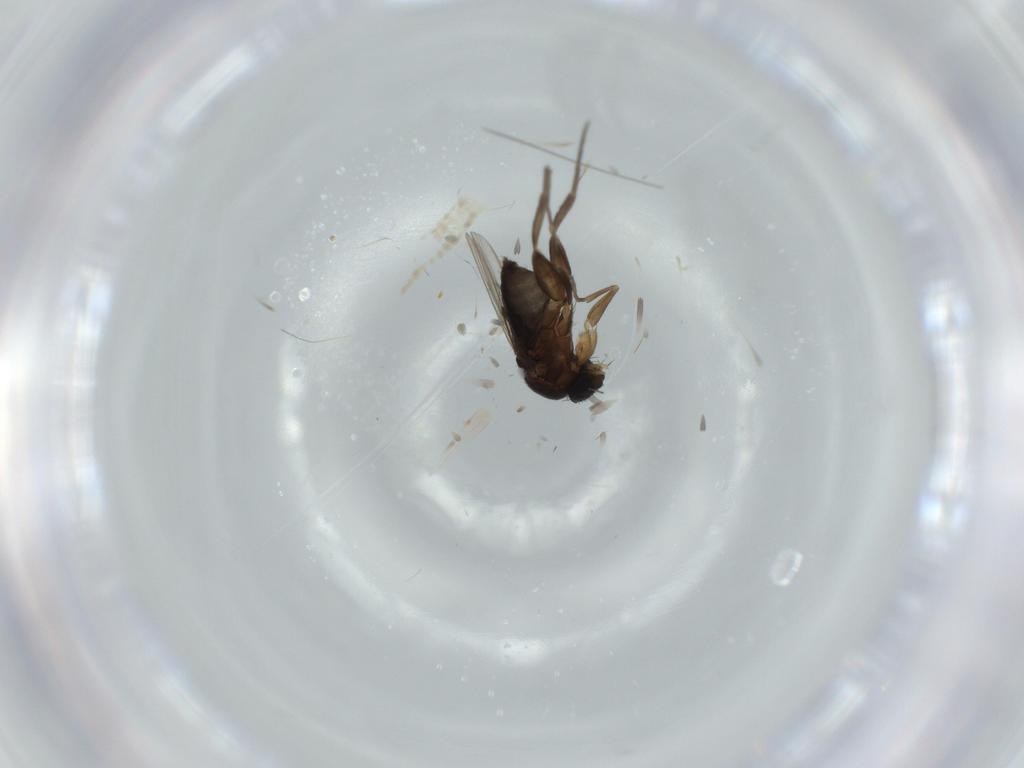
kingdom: Animalia
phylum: Arthropoda
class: Insecta
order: Diptera
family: Phoridae
